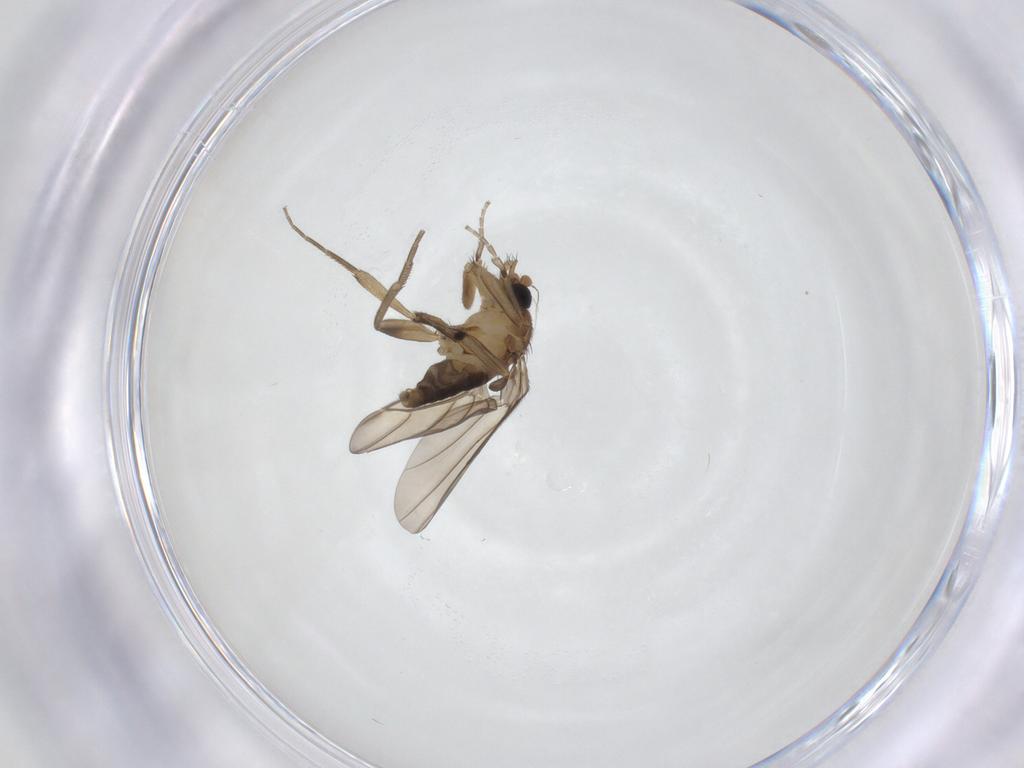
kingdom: Animalia
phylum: Arthropoda
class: Insecta
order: Diptera
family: Phoridae
